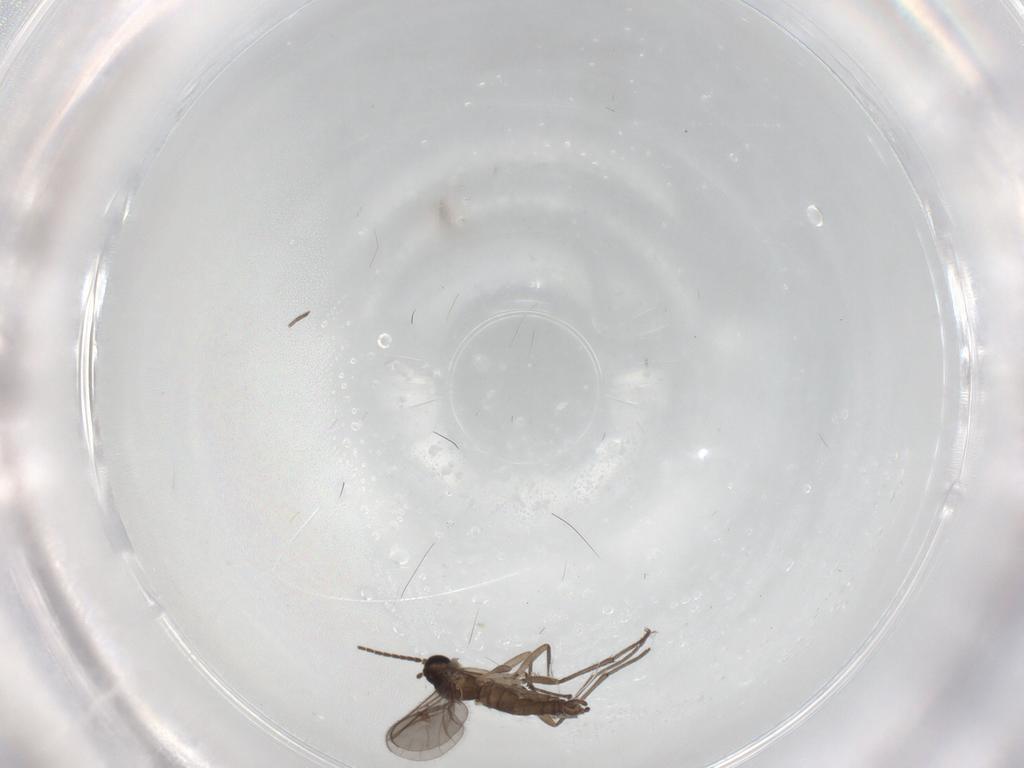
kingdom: Animalia
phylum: Arthropoda
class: Insecta
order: Diptera
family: Sciaridae
